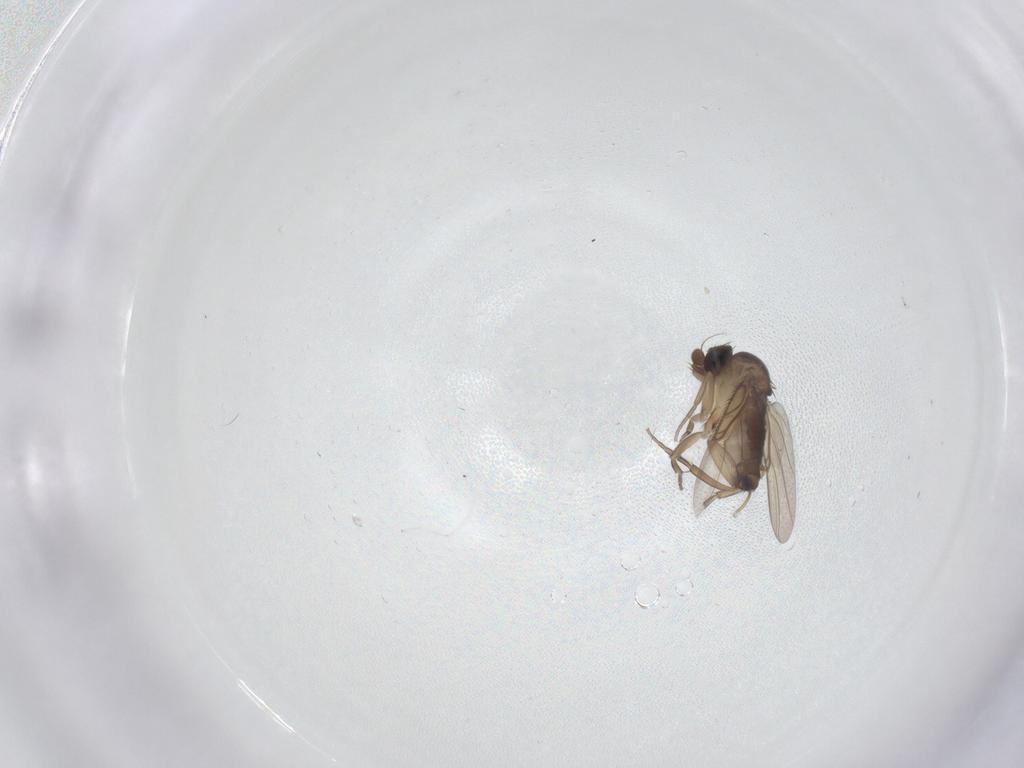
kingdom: Animalia
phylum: Arthropoda
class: Insecta
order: Diptera
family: Phoridae
